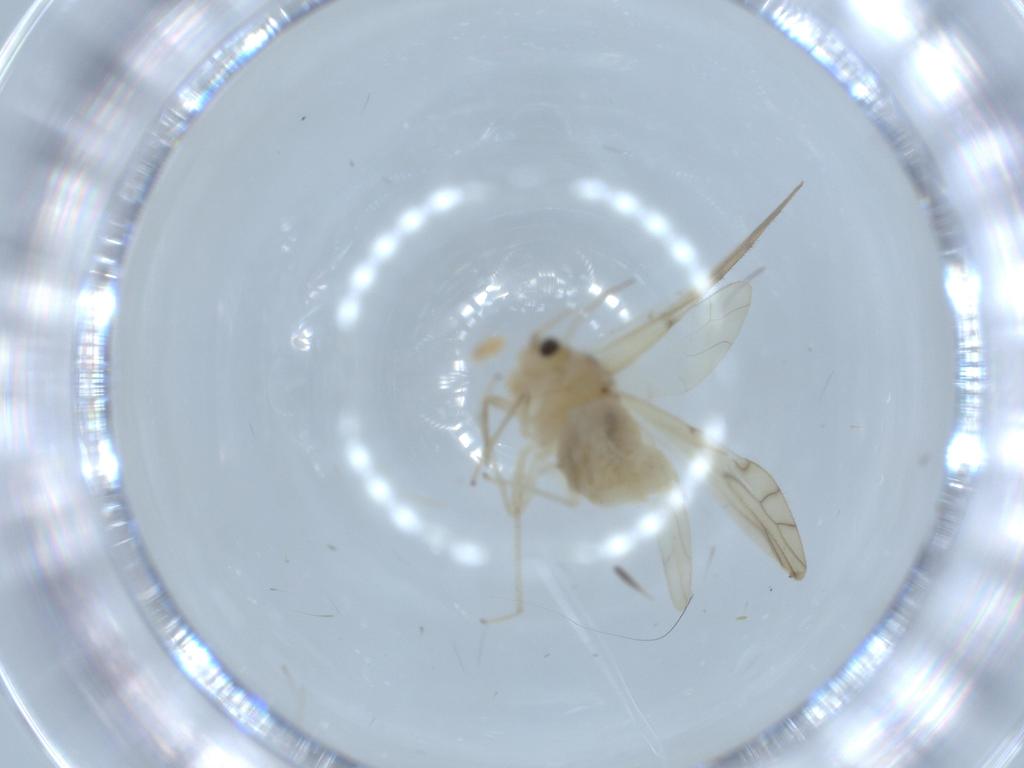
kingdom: Animalia
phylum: Arthropoda
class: Insecta
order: Psocodea
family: Caeciliusidae
